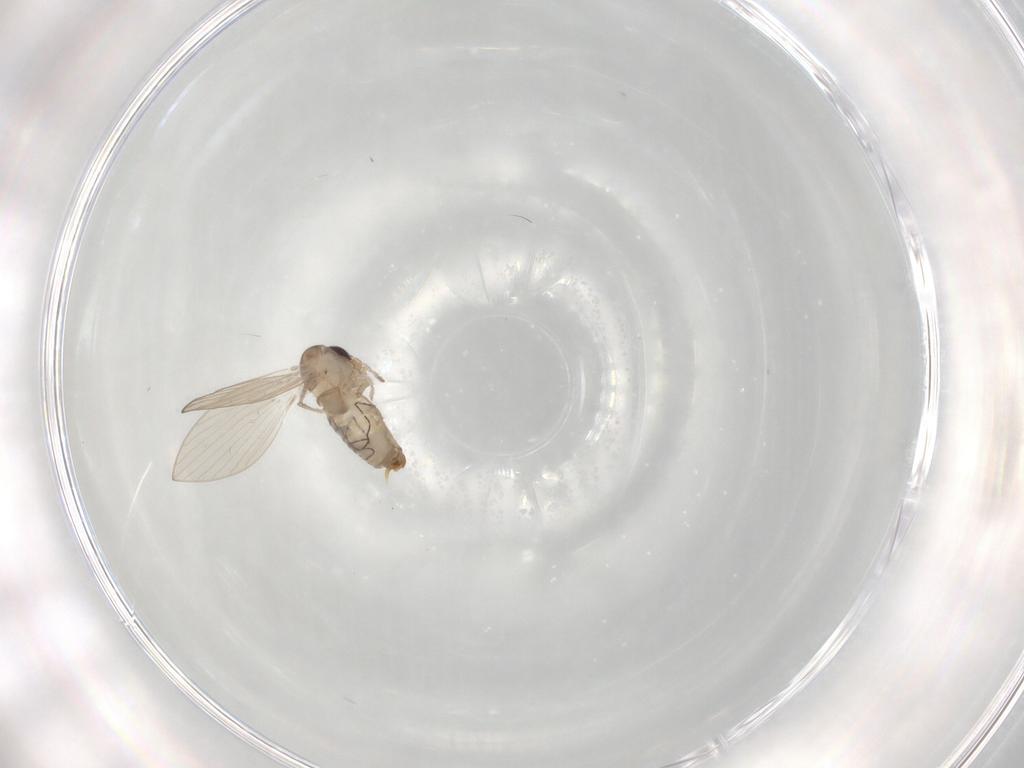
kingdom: Animalia
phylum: Arthropoda
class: Insecta
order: Diptera
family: Psychodidae
